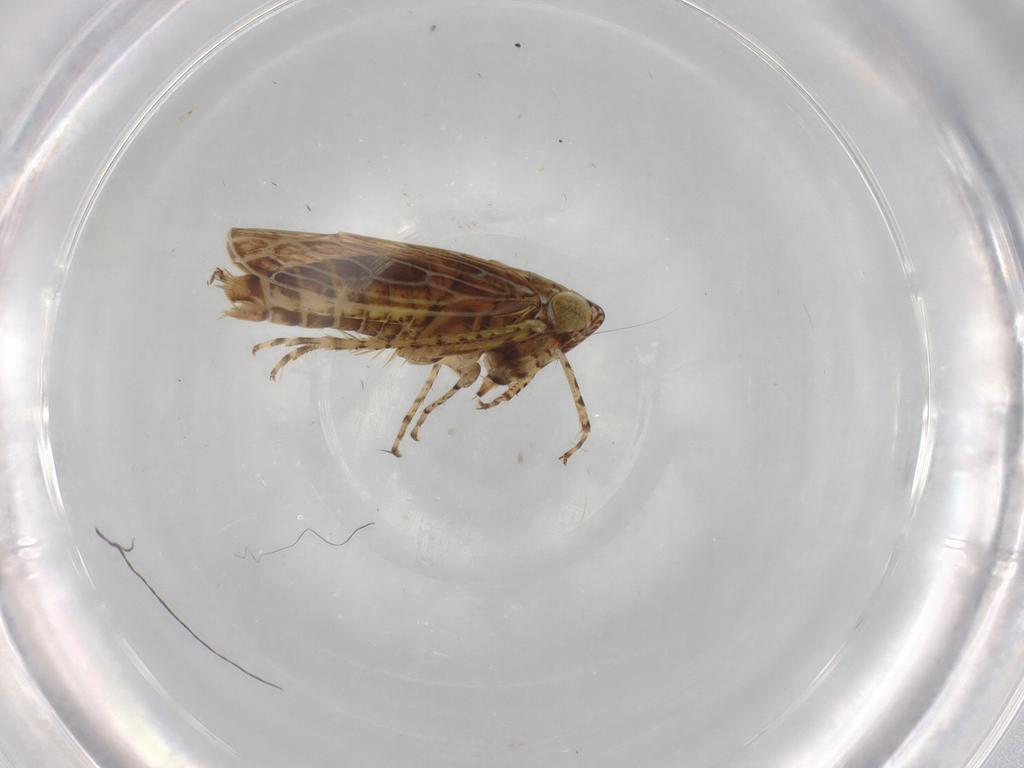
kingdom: Animalia
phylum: Arthropoda
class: Insecta
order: Hemiptera
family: Cicadellidae
